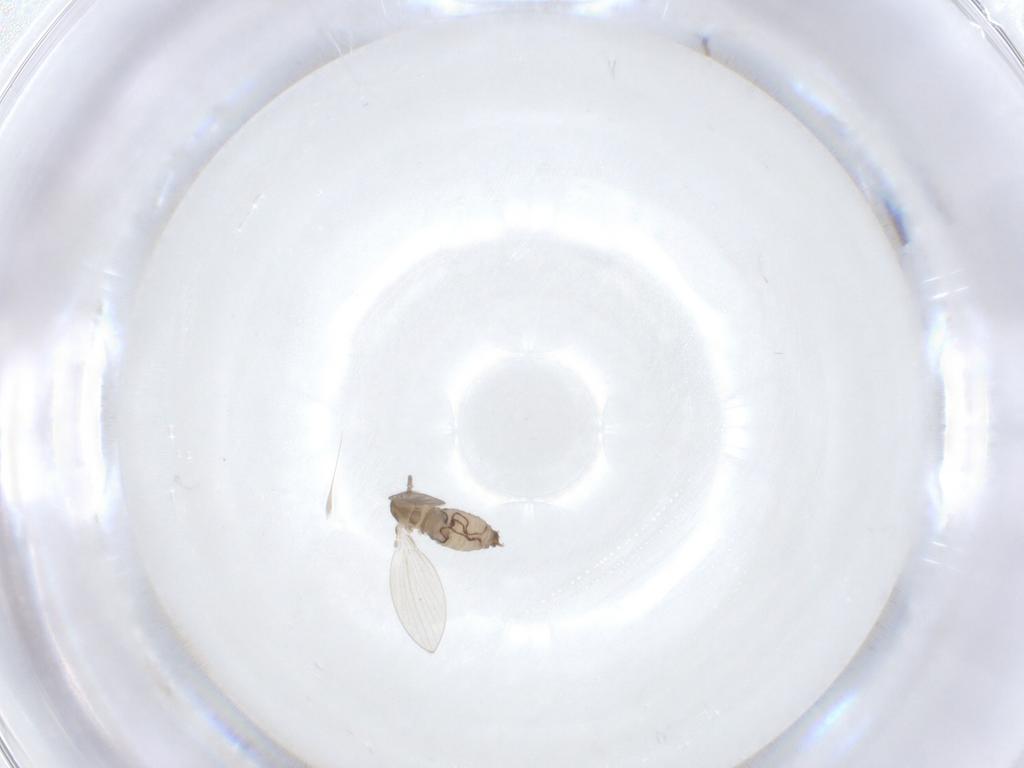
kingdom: Animalia
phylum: Arthropoda
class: Insecta
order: Diptera
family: Psychodidae
